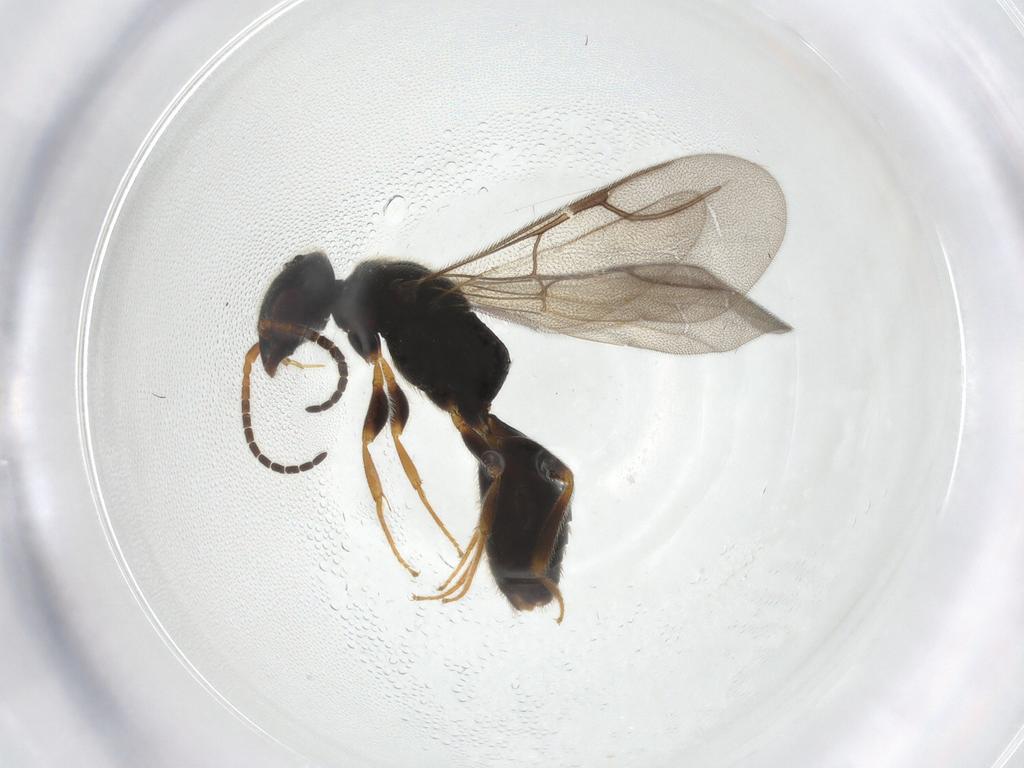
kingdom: Animalia
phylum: Arthropoda
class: Insecta
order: Hymenoptera
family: Bethylidae
